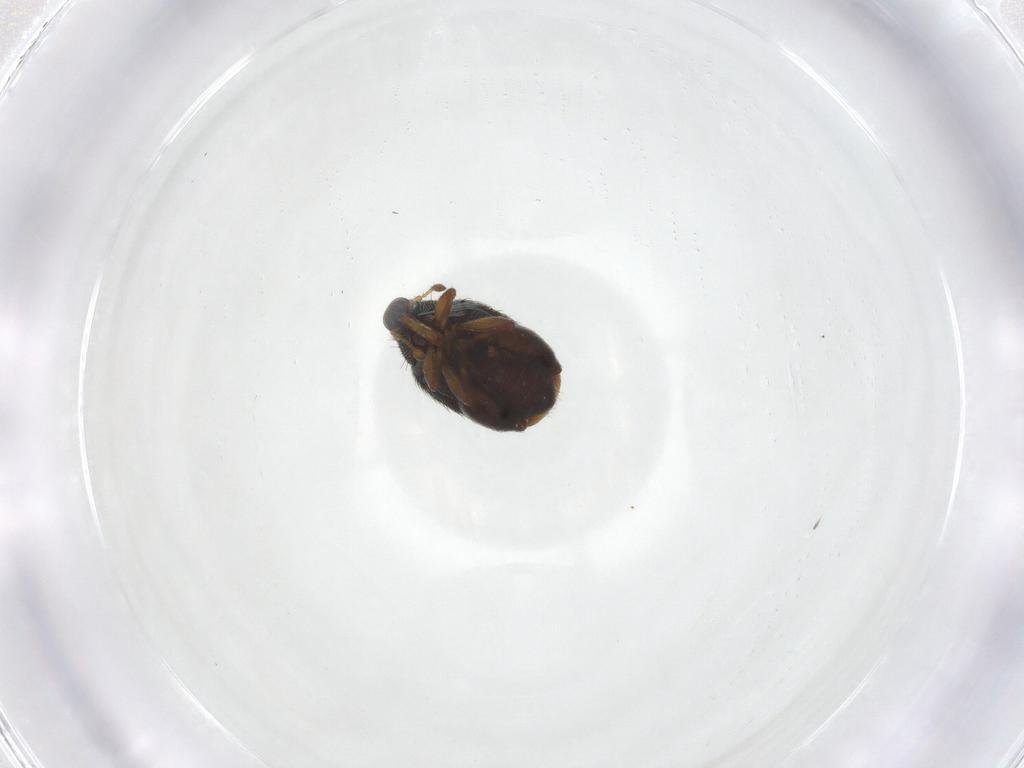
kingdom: Animalia
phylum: Arthropoda
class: Insecta
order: Coleoptera
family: Curculionidae
